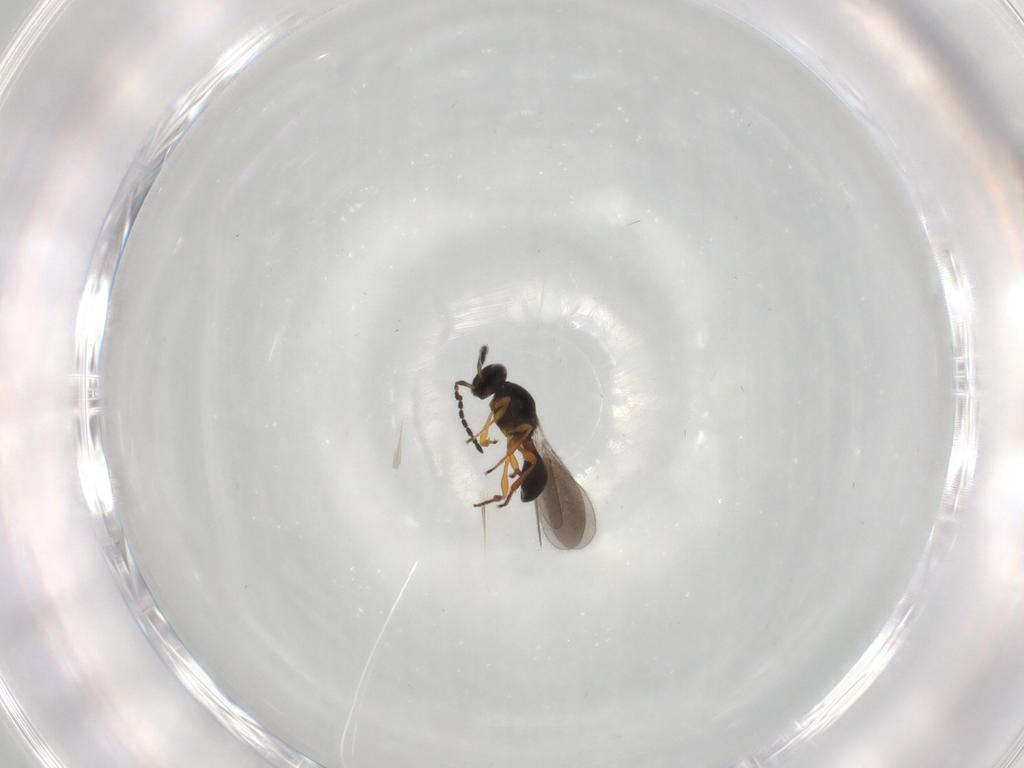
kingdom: Animalia
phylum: Arthropoda
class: Insecta
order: Hymenoptera
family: Platygastridae
